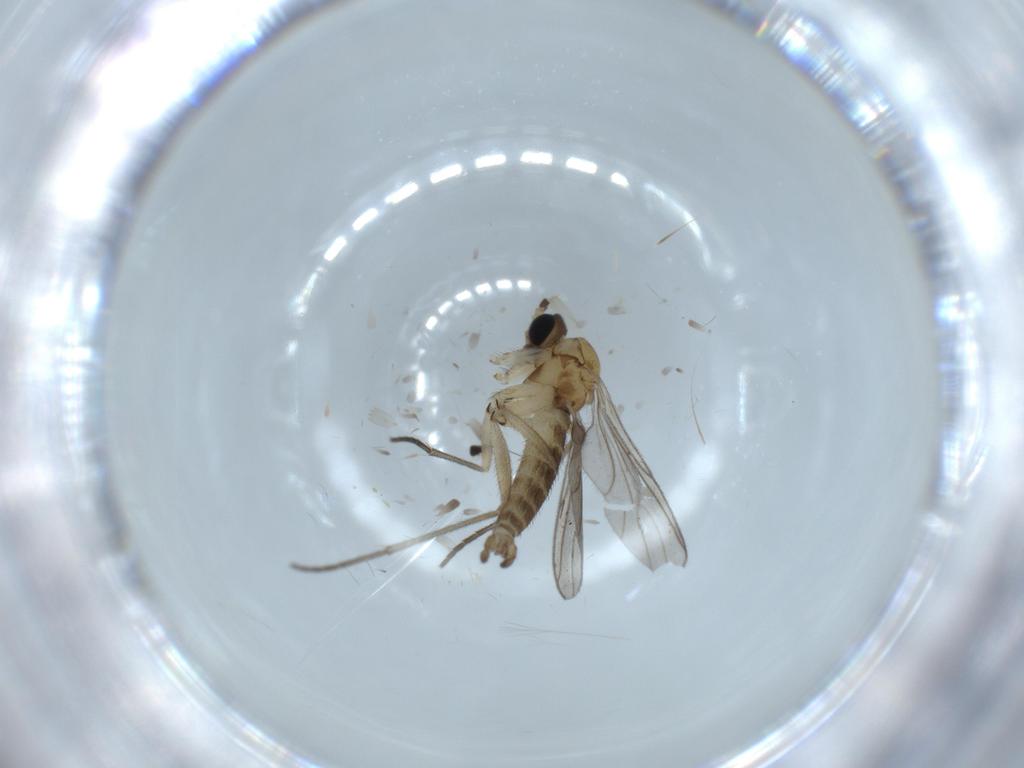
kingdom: Animalia
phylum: Arthropoda
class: Insecta
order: Diptera
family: Sciaridae
